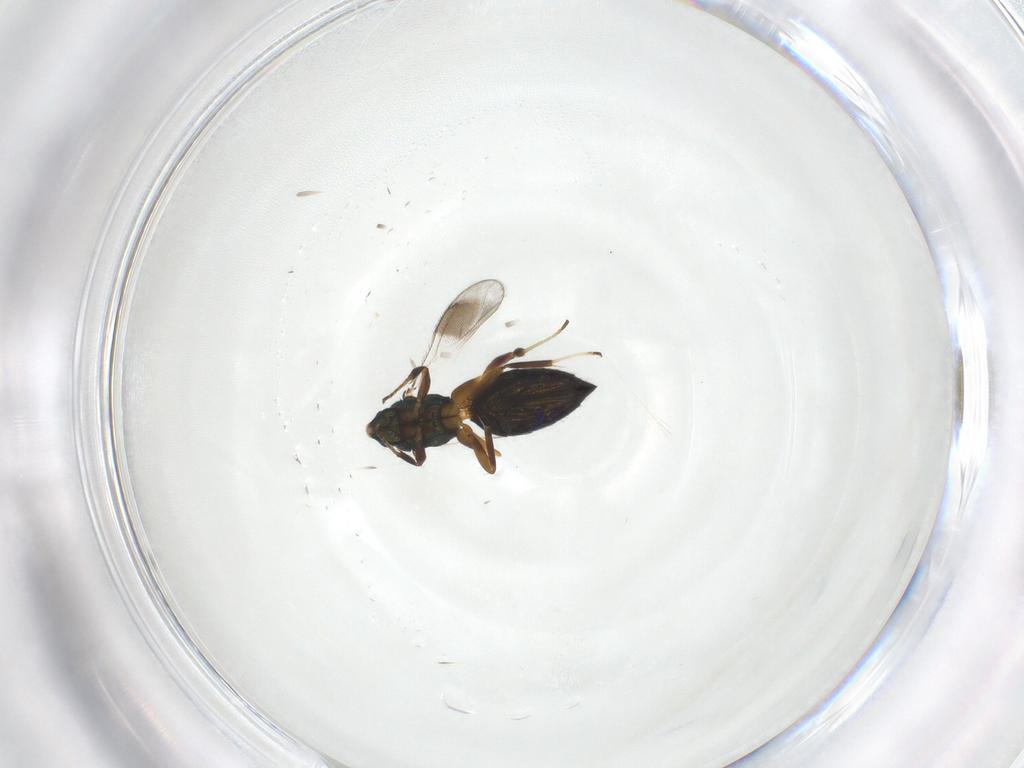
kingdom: Animalia
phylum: Arthropoda
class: Insecta
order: Hymenoptera
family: Cleonyminae
